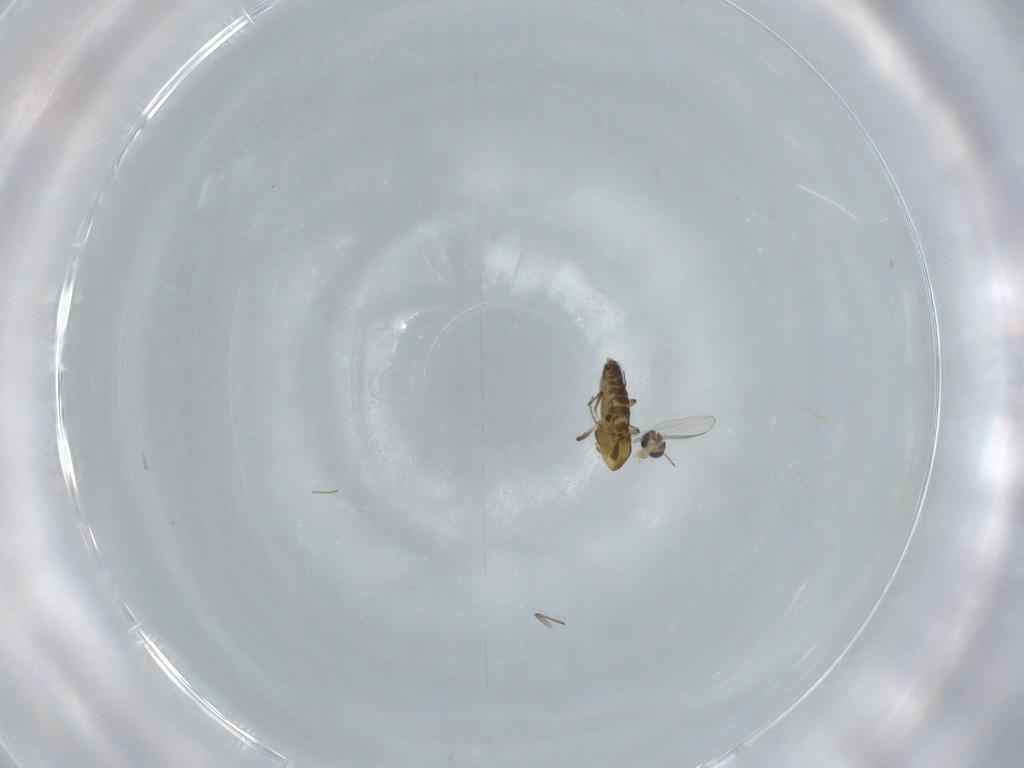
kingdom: Animalia
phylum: Arthropoda
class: Insecta
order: Diptera
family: Chironomidae
